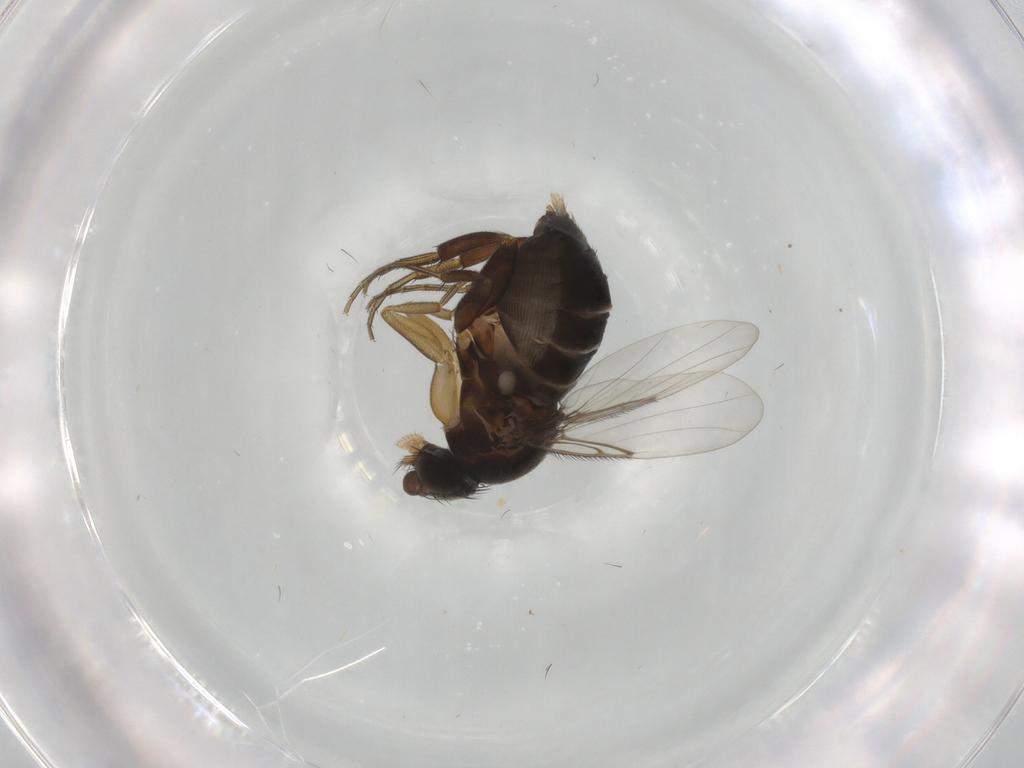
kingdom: Animalia
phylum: Arthropoda
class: Insecta
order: Diptera
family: Phoridae
